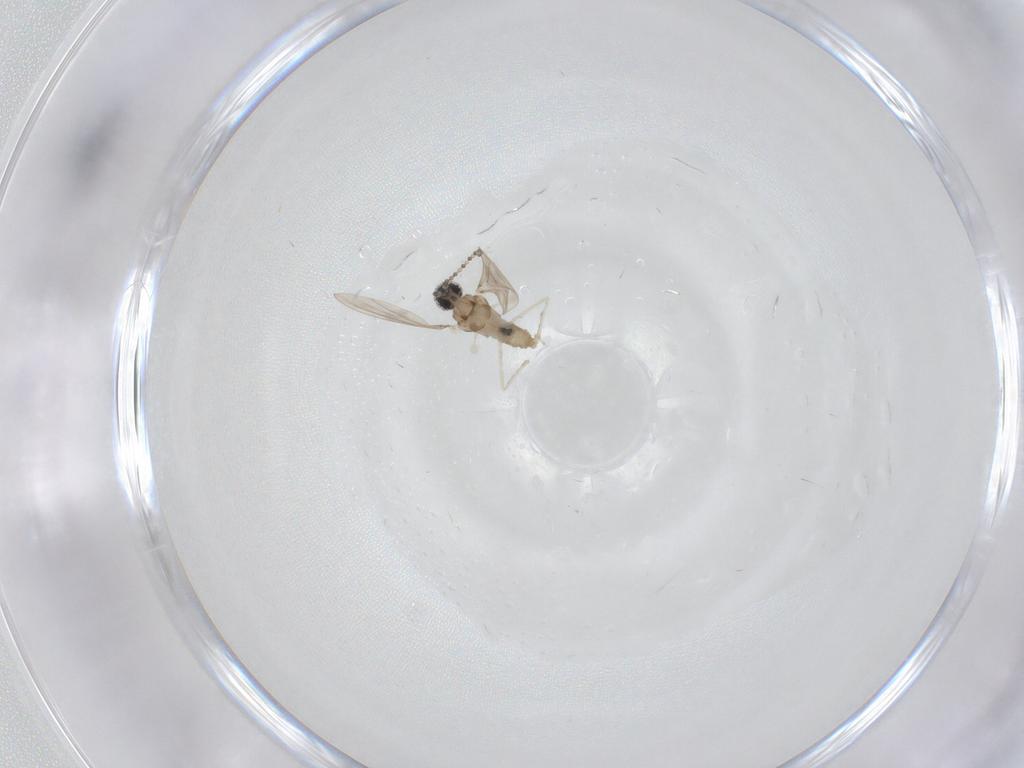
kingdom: Animalia
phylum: Arthropoda
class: Insecta
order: Diptera
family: Cecidomyiidae
